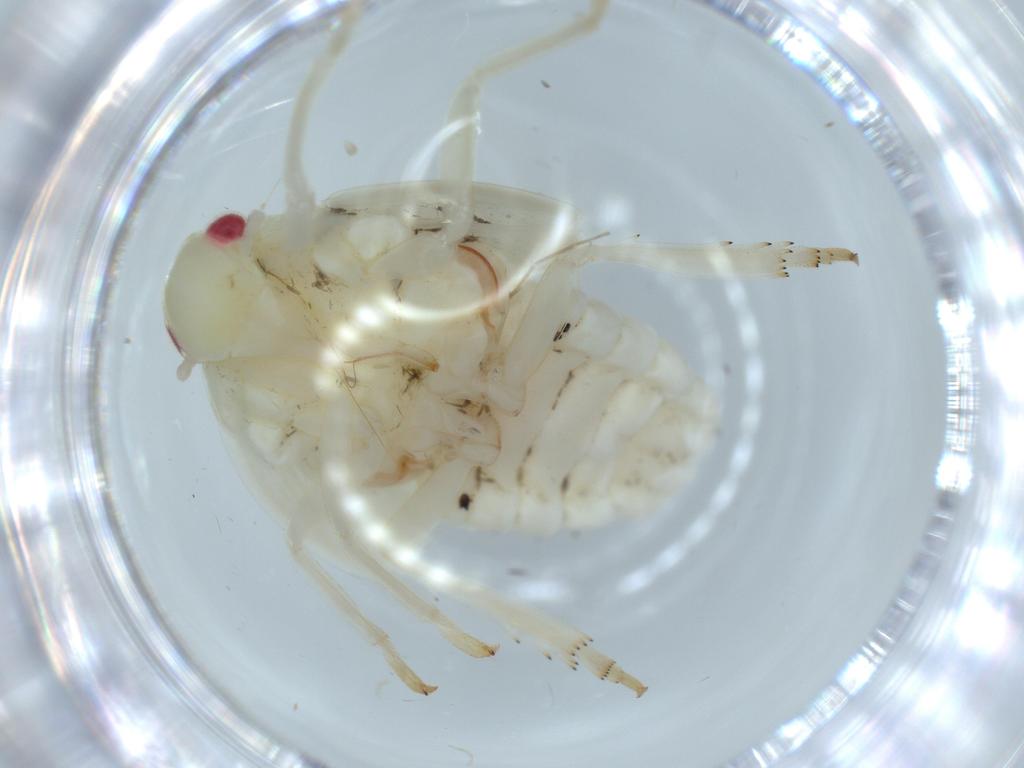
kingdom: Animalia
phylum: Arthropoda
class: Insecta
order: Hemiptera
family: Flatidae
